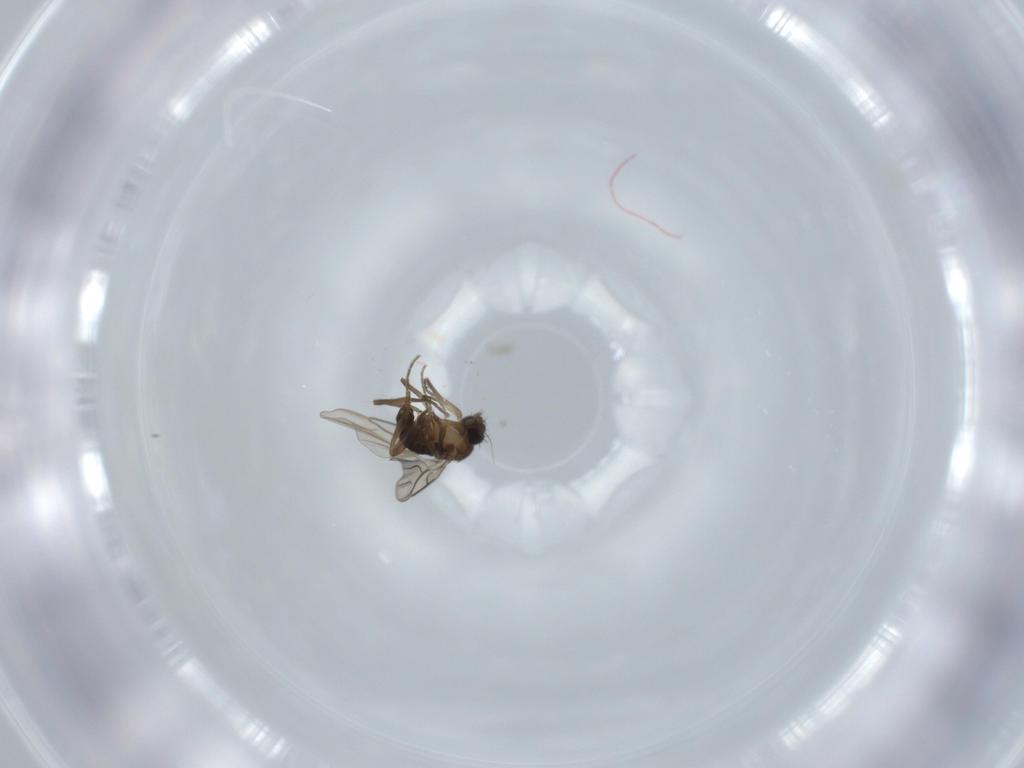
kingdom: Animalia
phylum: Arthropoda
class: Insecta
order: Diptera
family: Phoridae
